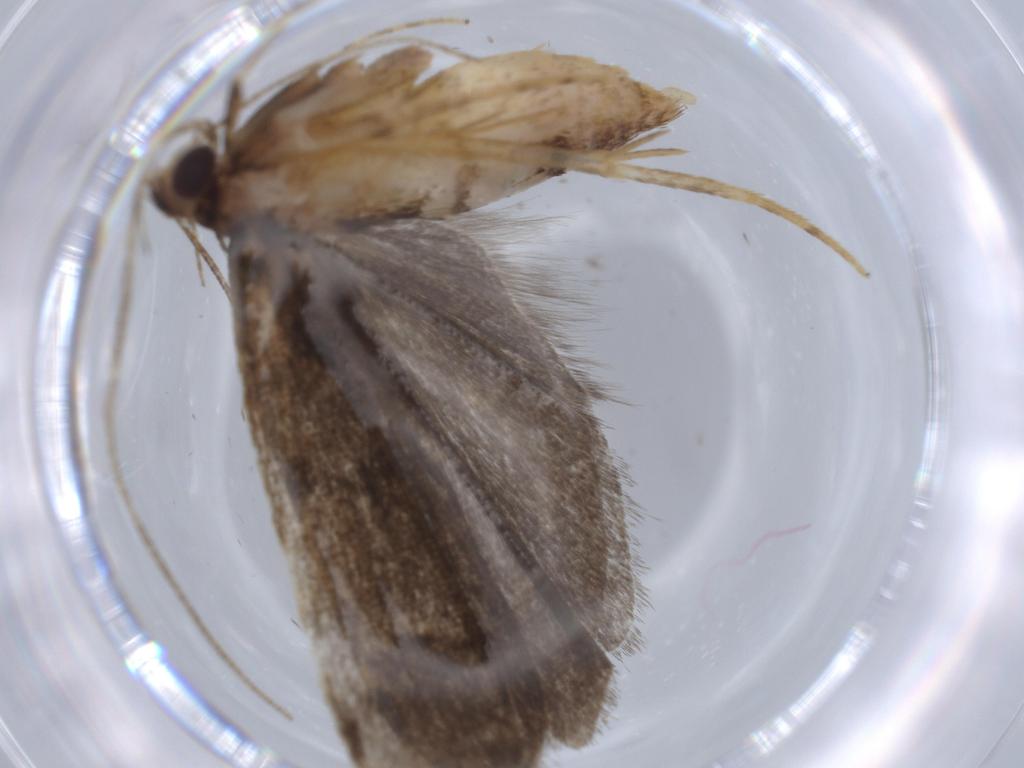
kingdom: Animalia
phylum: Arthropoda
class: Insecta
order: Lepidoptera
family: Autostichidae
